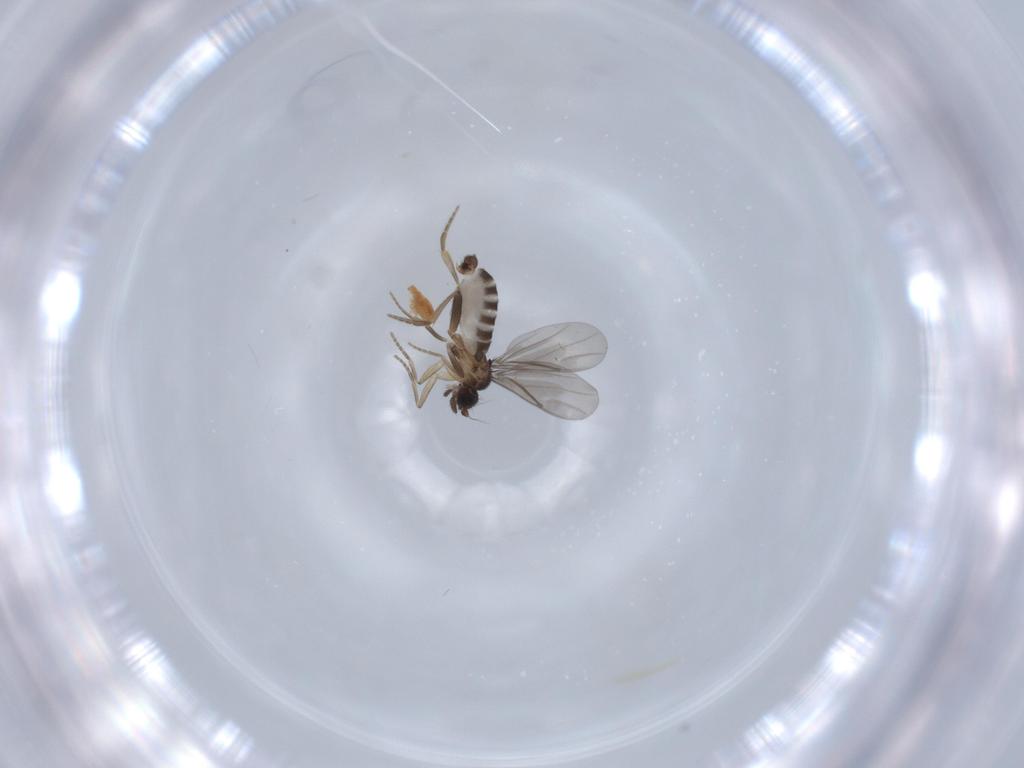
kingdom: Animalia
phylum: Arthropoda
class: Insecta
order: Diptera
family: Phoridae
